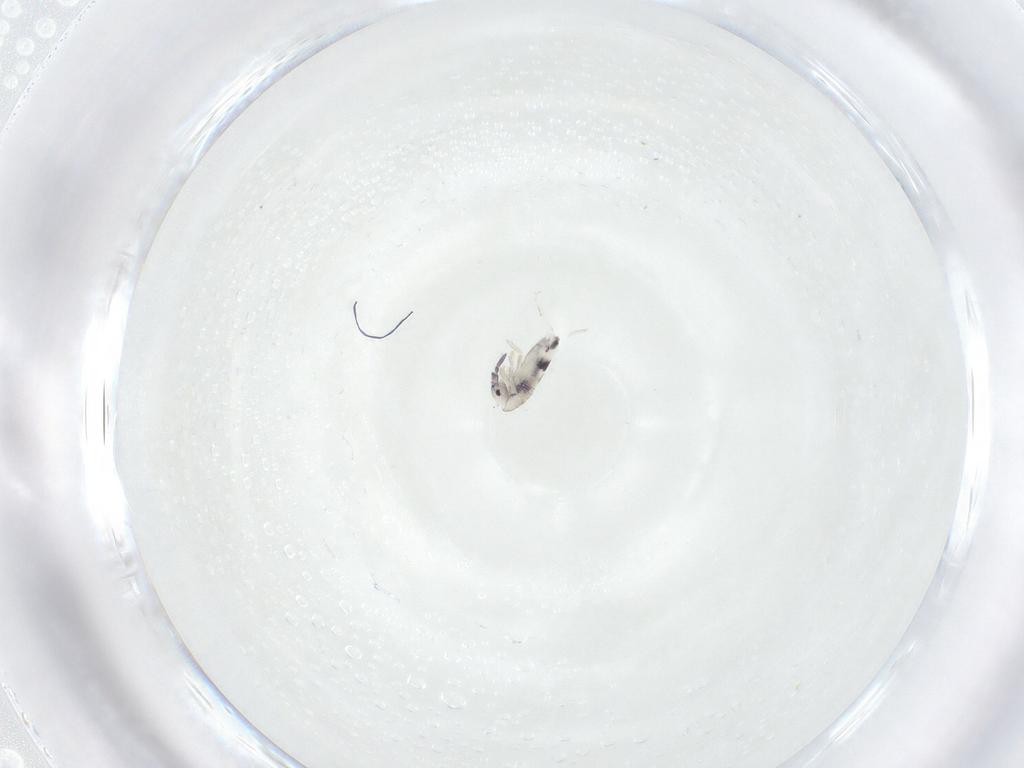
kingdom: Animalia
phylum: Arthropoda
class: Collembola
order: Entomobryomorpha
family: Entomobryidae
